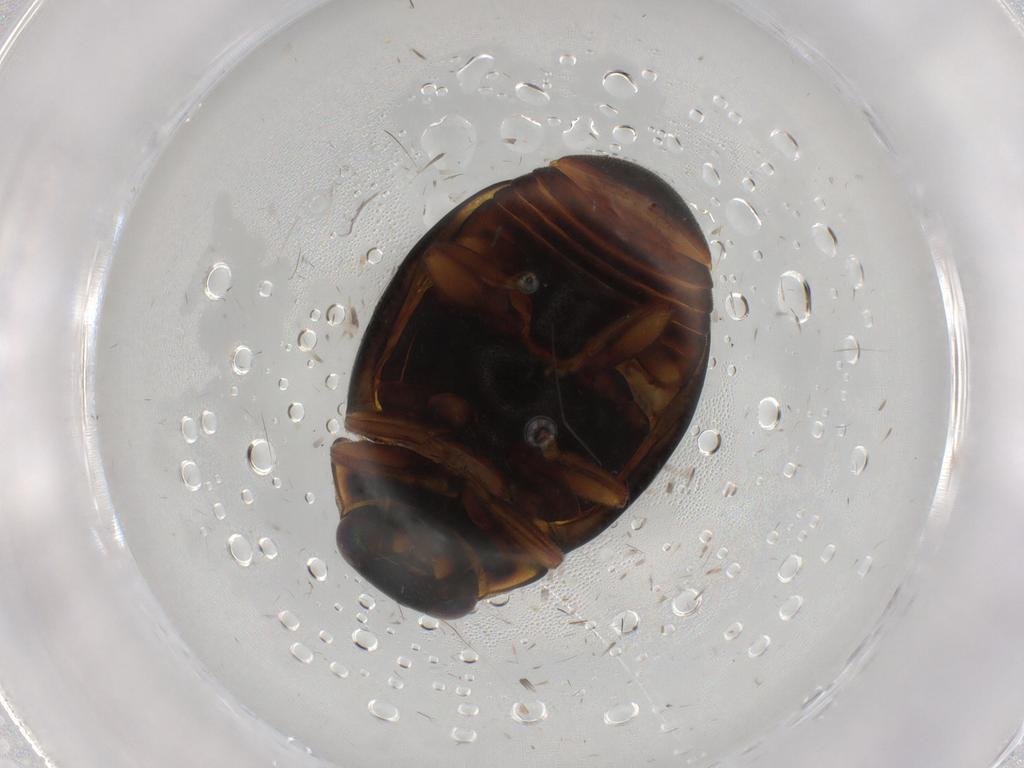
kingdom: Animalia
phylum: Arthropoda
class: Insecta
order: Coleoptera
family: Coccinellidae
